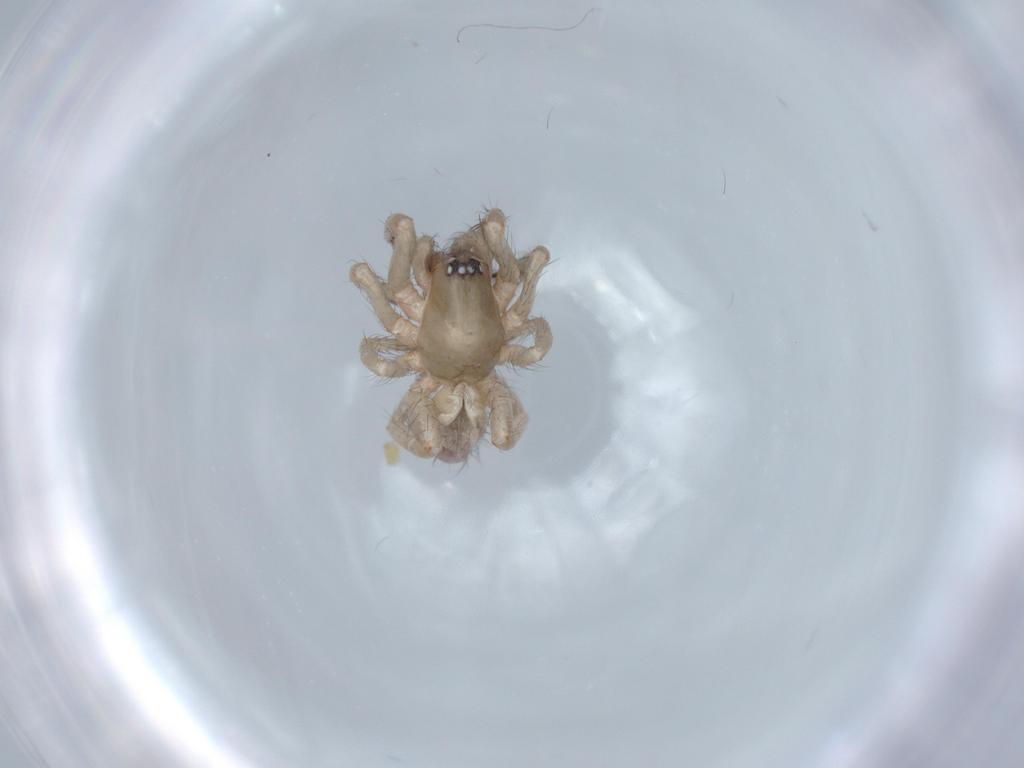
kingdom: Animalia
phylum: Arthropoda
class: Arachnida
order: Araneae
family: Segestriidae
